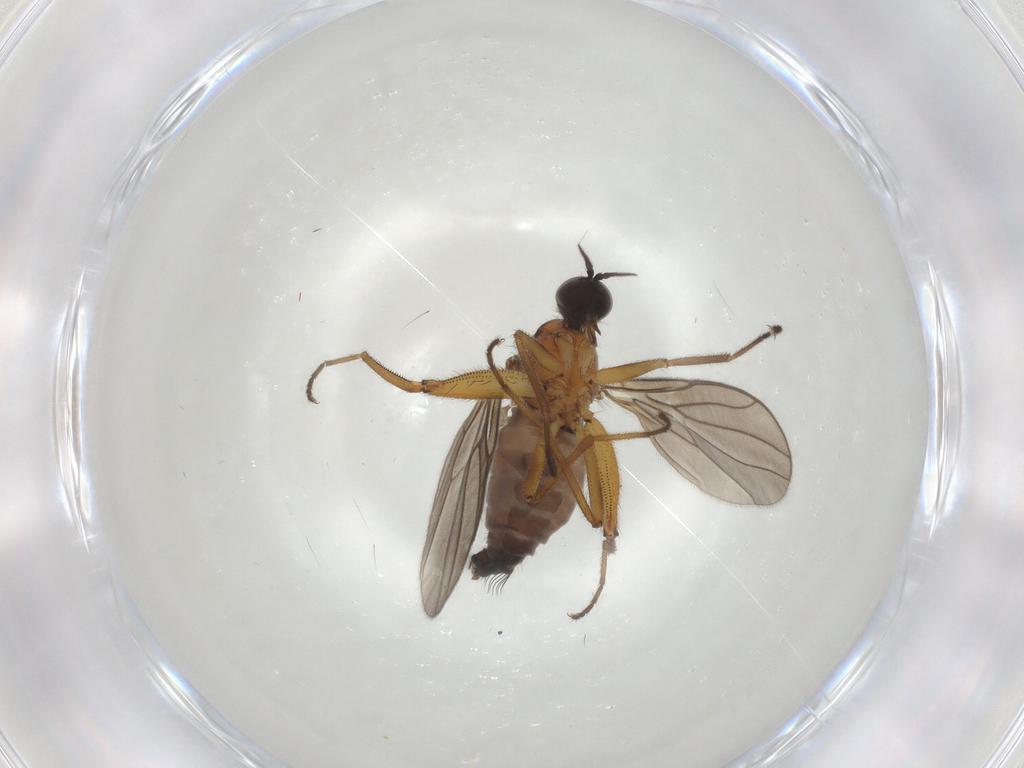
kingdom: Animalia
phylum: Arthropoda
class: Insecta
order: Diptera
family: Hybotidae
